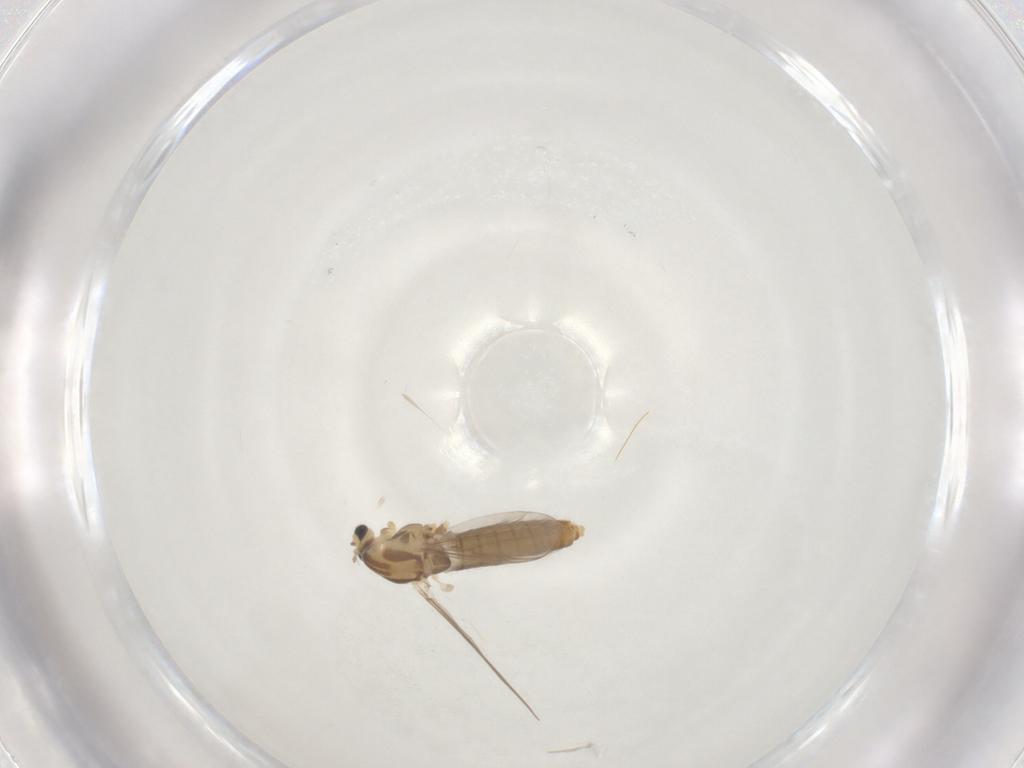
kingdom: Animalia
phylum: Arthropoda
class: Insecta
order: Diptera
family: Chironomidae
